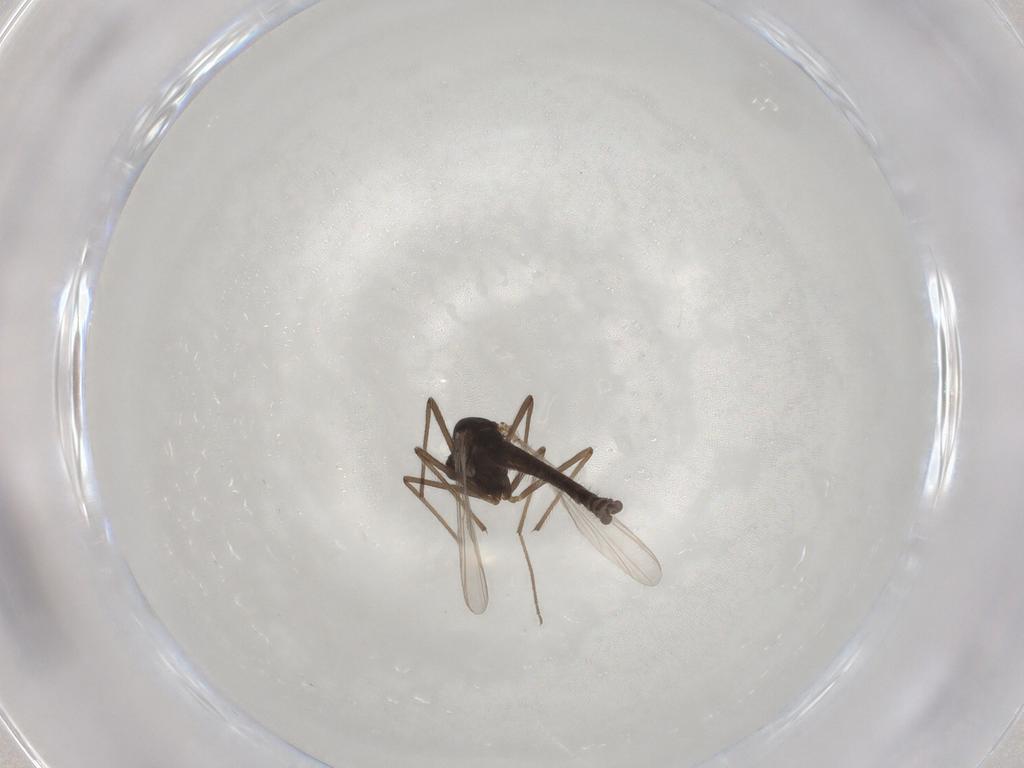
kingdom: Animalia
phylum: Arthropoda
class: Insecta
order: Diptera
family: Chironomidae
